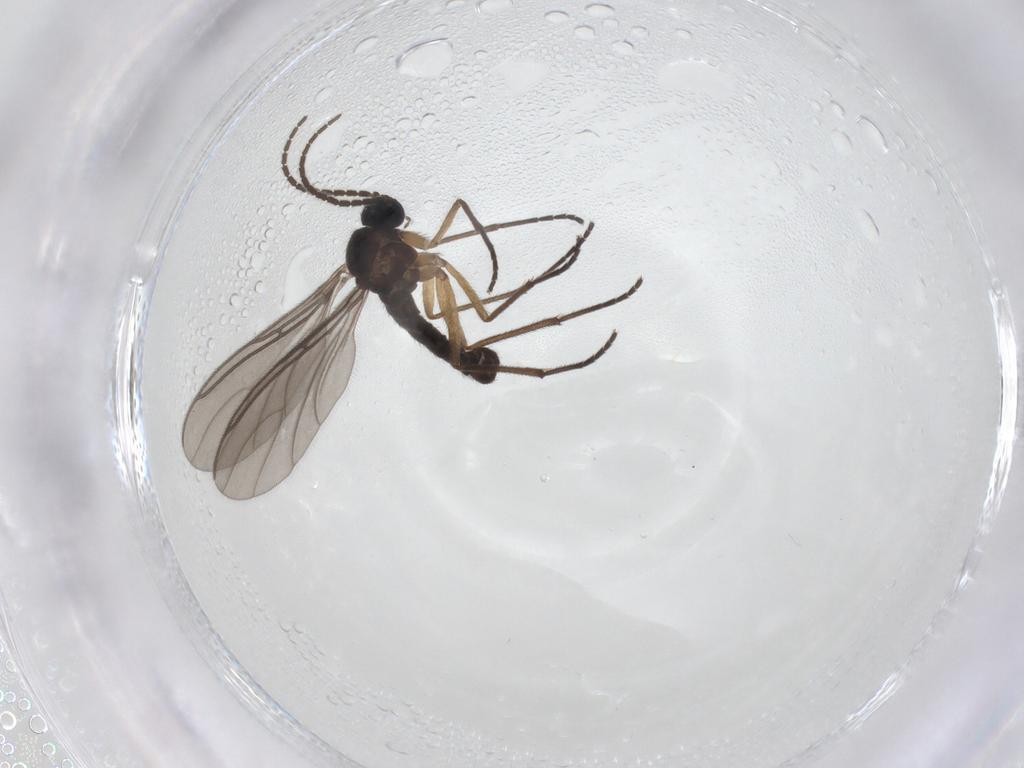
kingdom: Animalia
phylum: Arthropoda
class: Insecta
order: Diptera
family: Sciaridae
